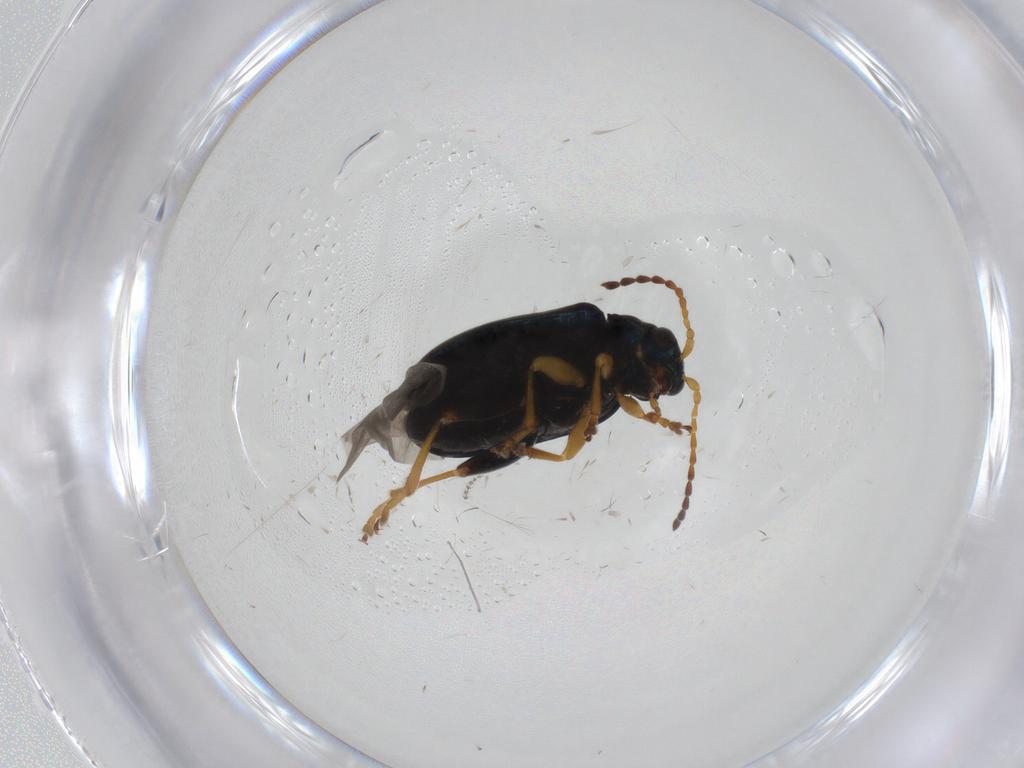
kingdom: Animalia
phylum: Arthropoda
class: Insecta
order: Coleoptera
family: Chrysomelidae
